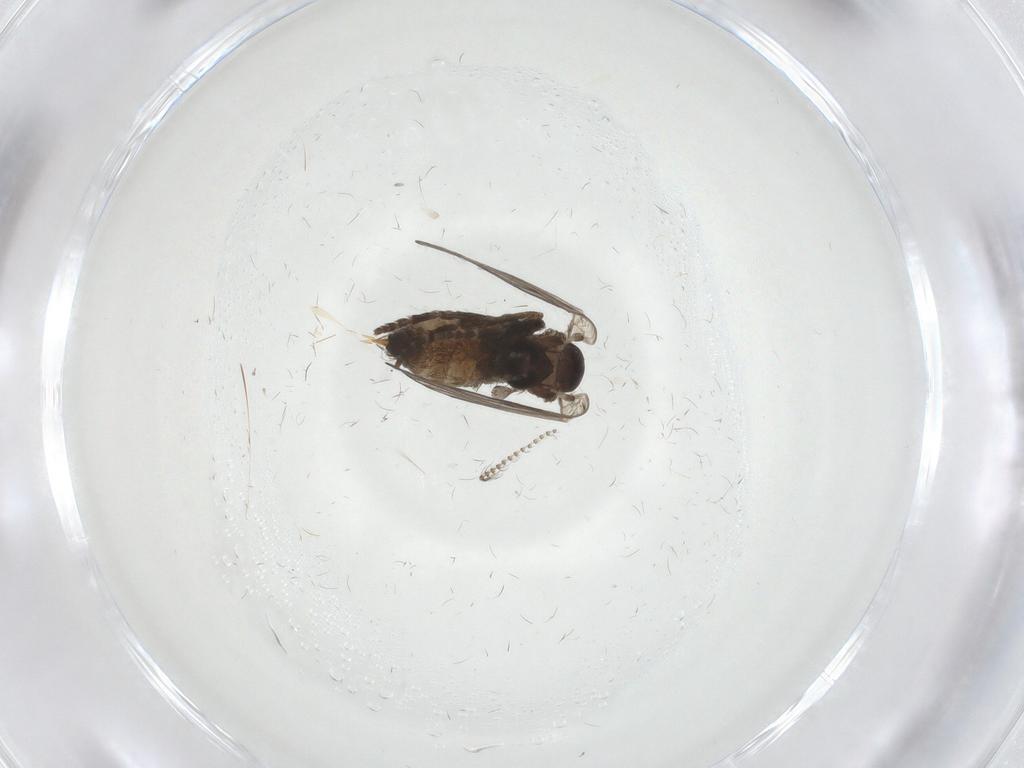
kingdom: Animalia
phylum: Arthropoda
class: Insecta
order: Diptera
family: Psychodidae
